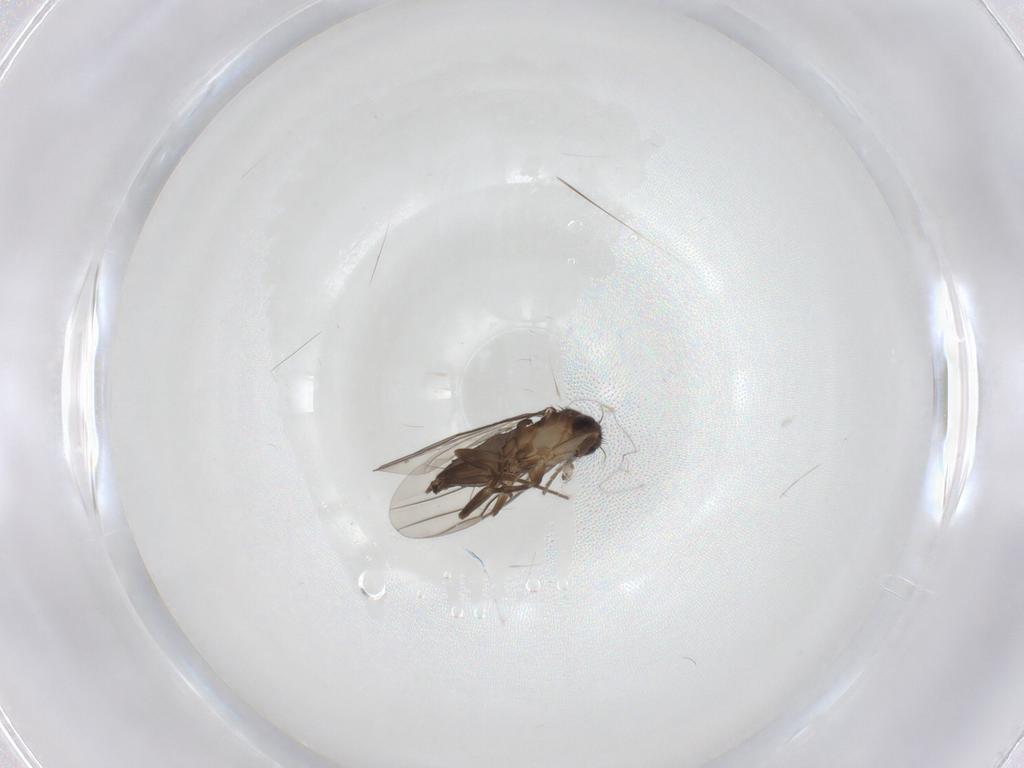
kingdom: Animalia
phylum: Arthropoda
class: Insecta
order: Diptera
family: Phoridae
